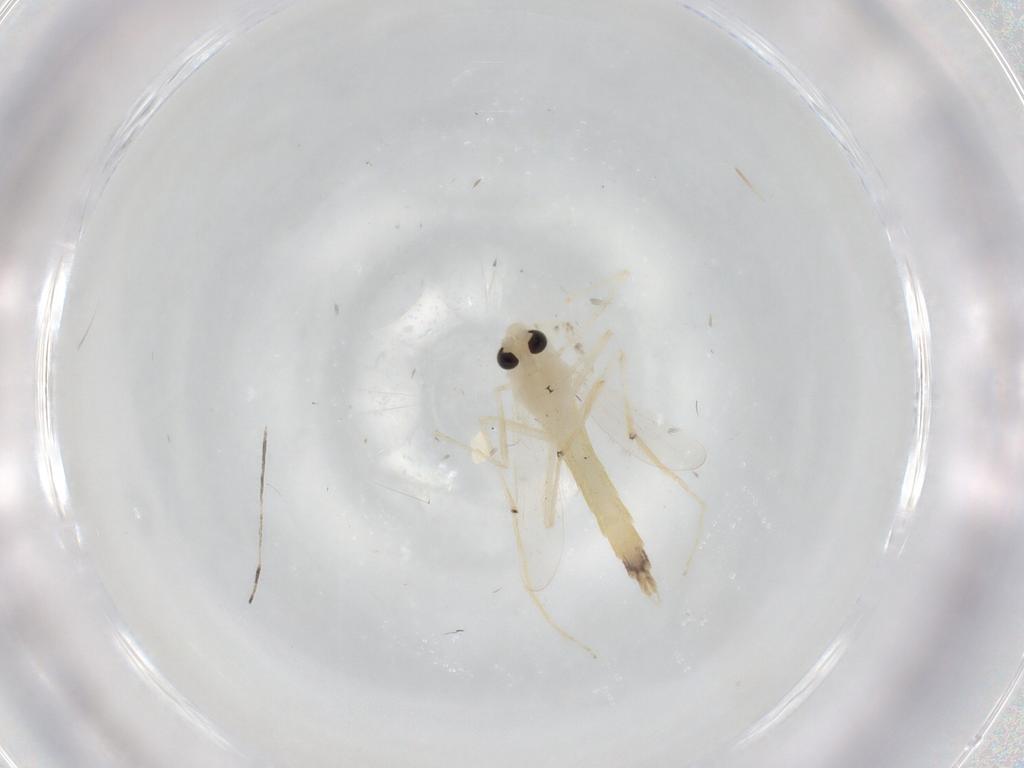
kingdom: Animalia
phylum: Arthropoda
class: Insecta
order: Diptera
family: Chironomidae
